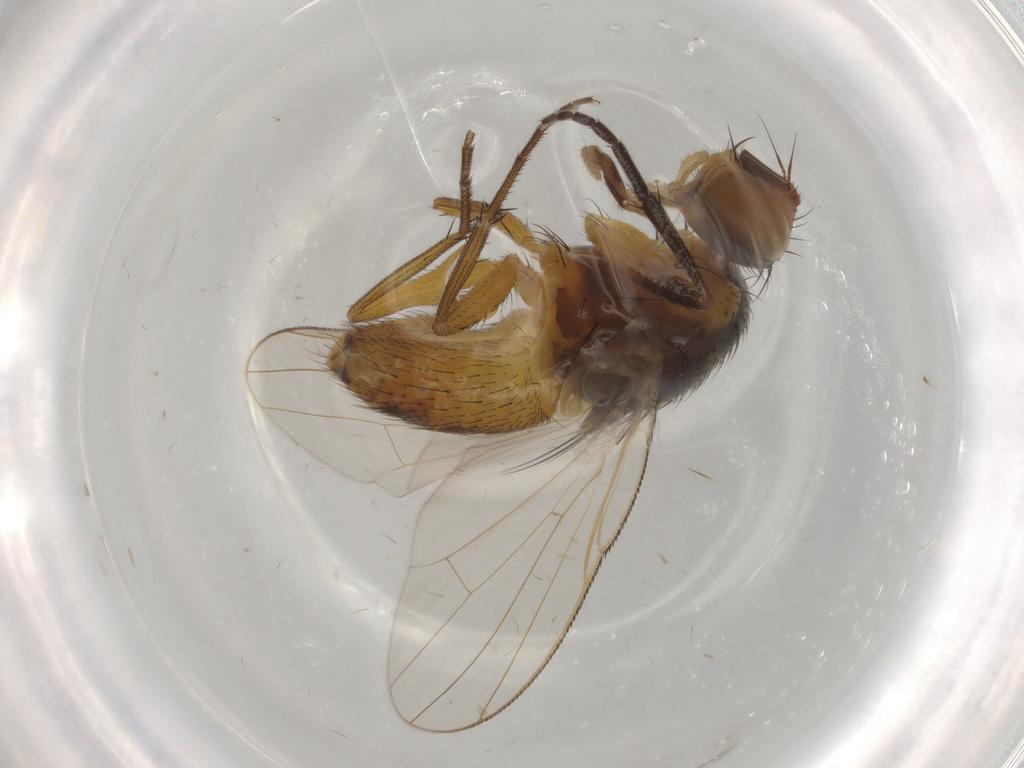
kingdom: Animalia
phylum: Arthropoda
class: Insecta
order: Diptera
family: Muscidae
